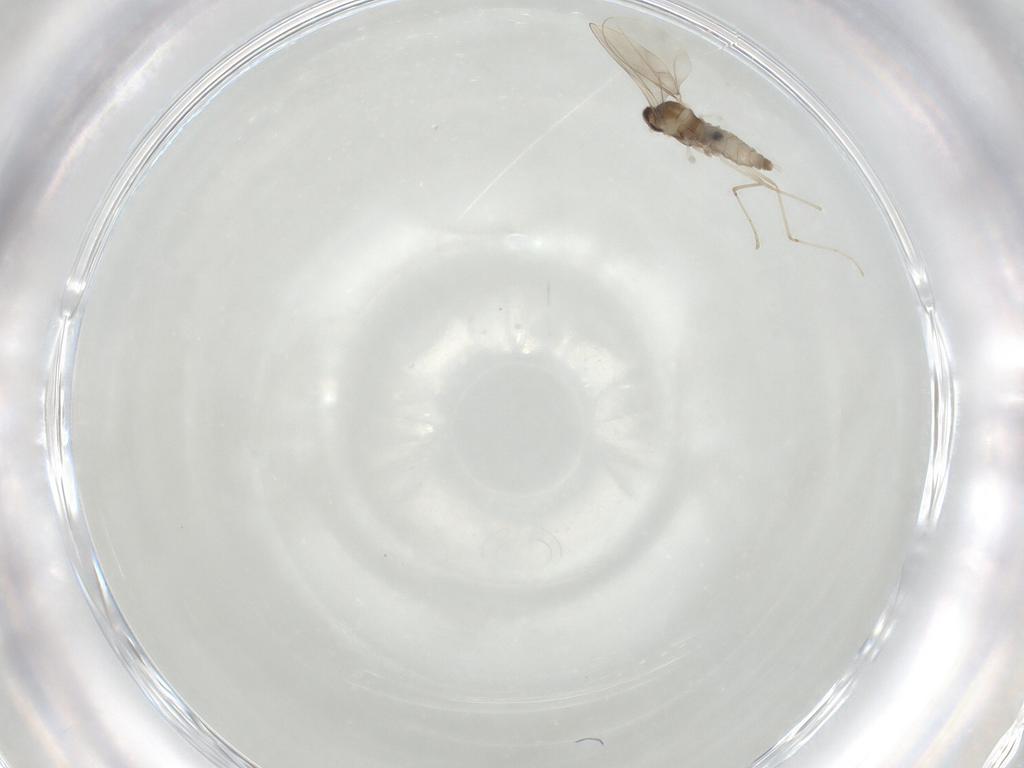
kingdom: Animalia
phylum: Arthropoda
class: Insecta
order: Diptera
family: Cecidomyiidae
